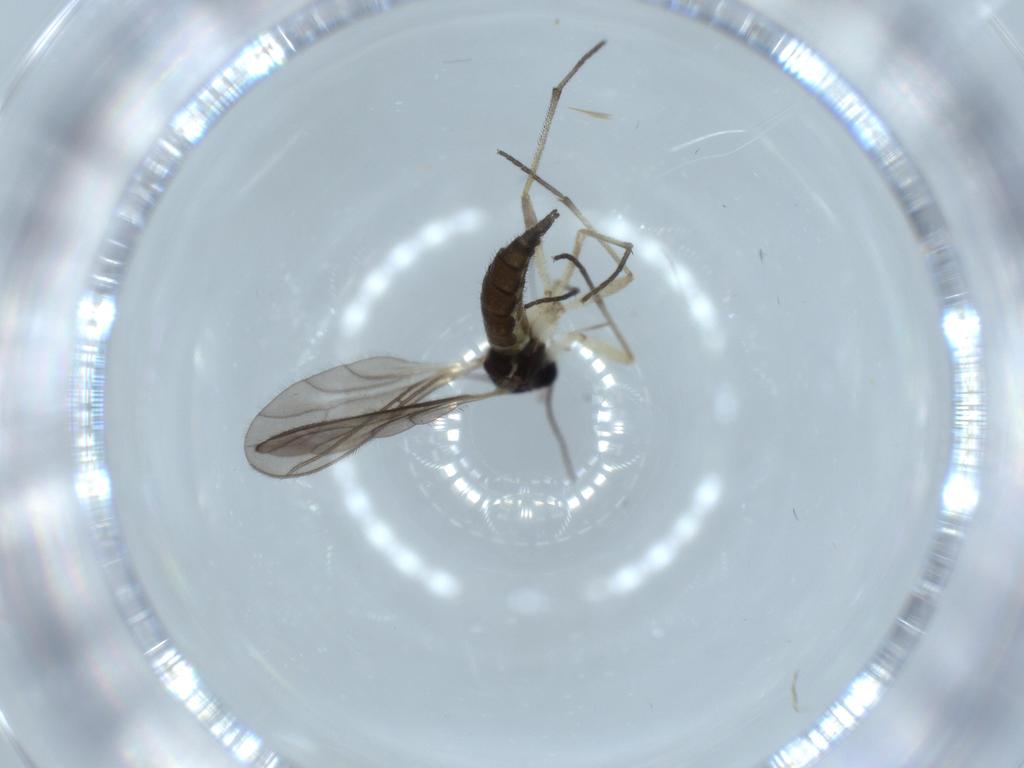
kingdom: Animalia
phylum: Arthropoda
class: Insecta
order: Diptera
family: Sciaridae
